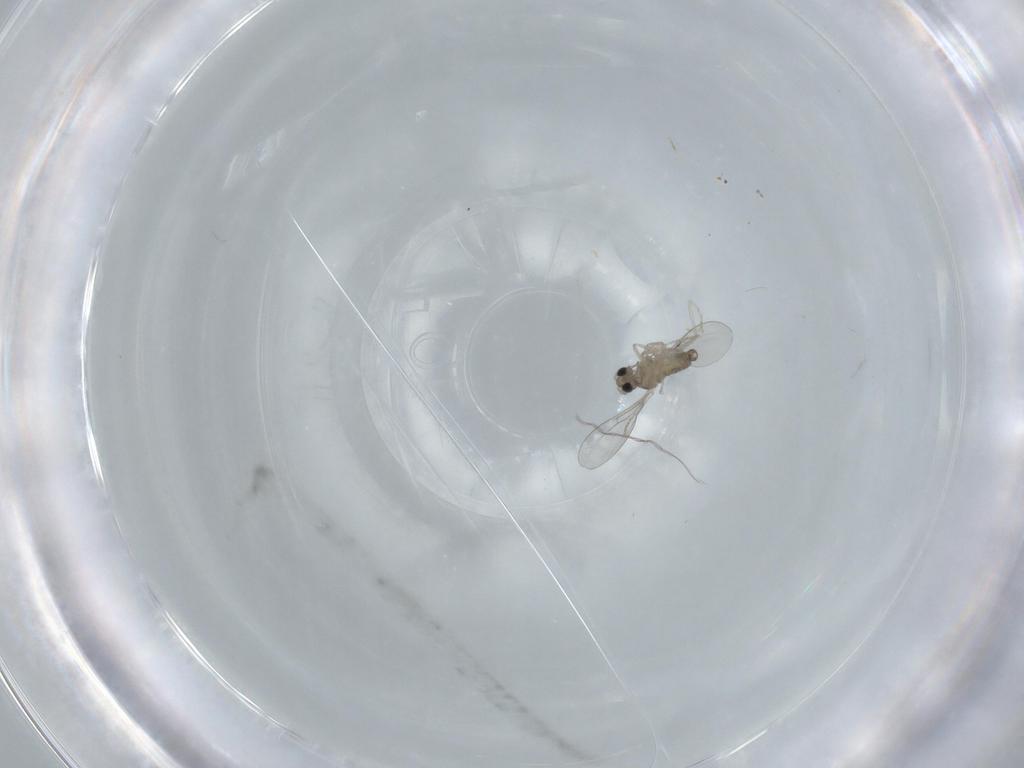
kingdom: Animalia
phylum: Arthropoda
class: Insecta
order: Diptera
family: Cecidomyiidae
